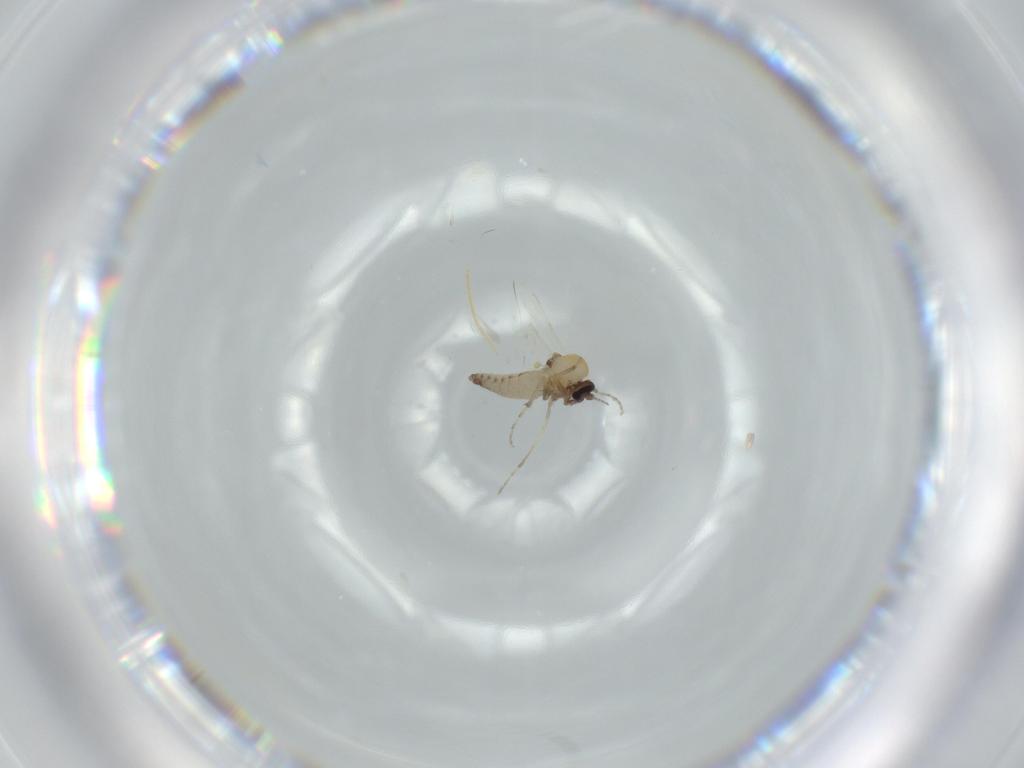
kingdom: Animalia
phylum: Arthropoda
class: Insecta
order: Diptera
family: Ceratopogonidae
